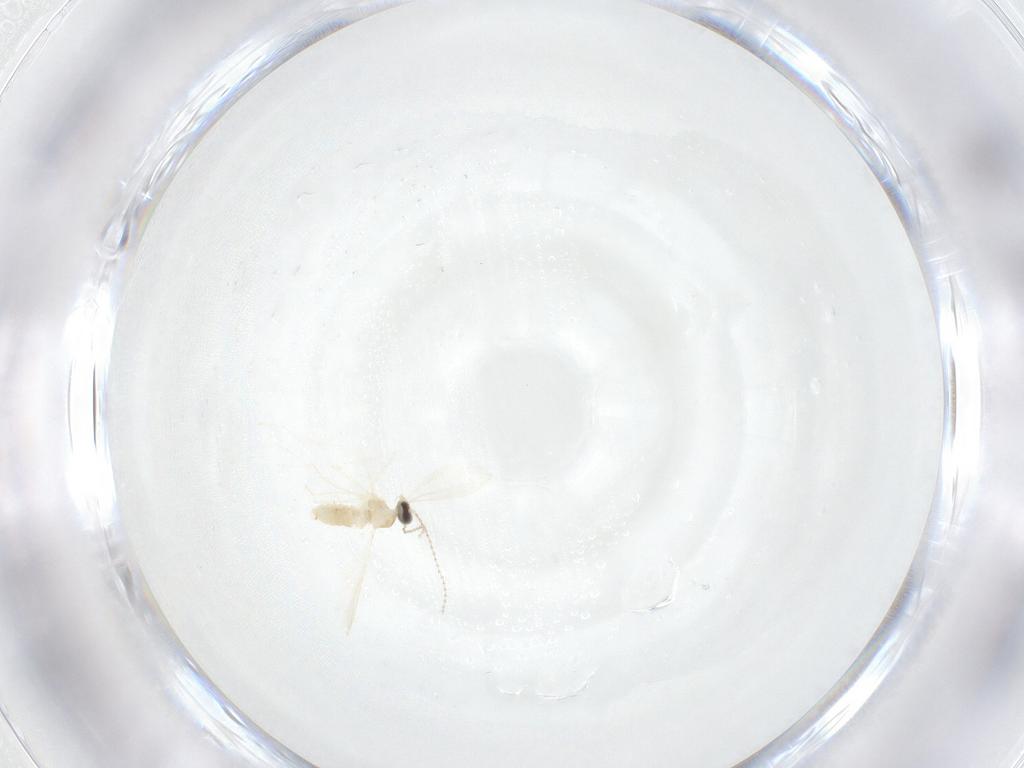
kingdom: Animalia
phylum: Arthropoda
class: Insecta
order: Diptera
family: Cecidomyiidae
